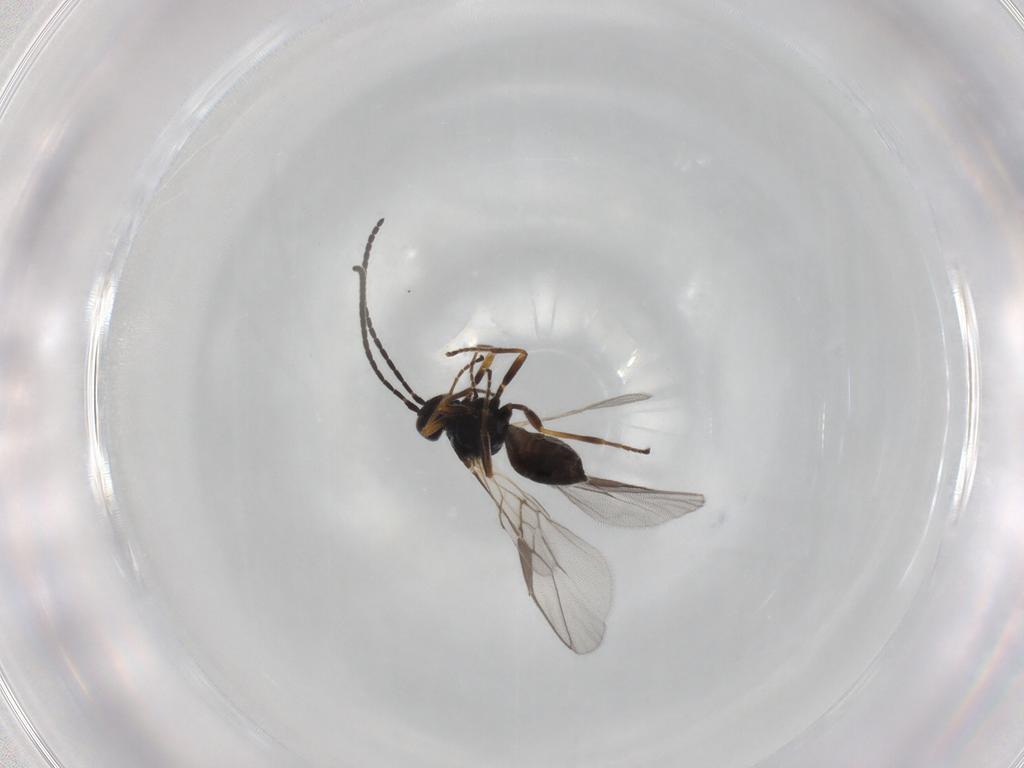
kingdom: Animalia
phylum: Arthropoda
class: Insecta
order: Hymenoptera
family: Braconidae
